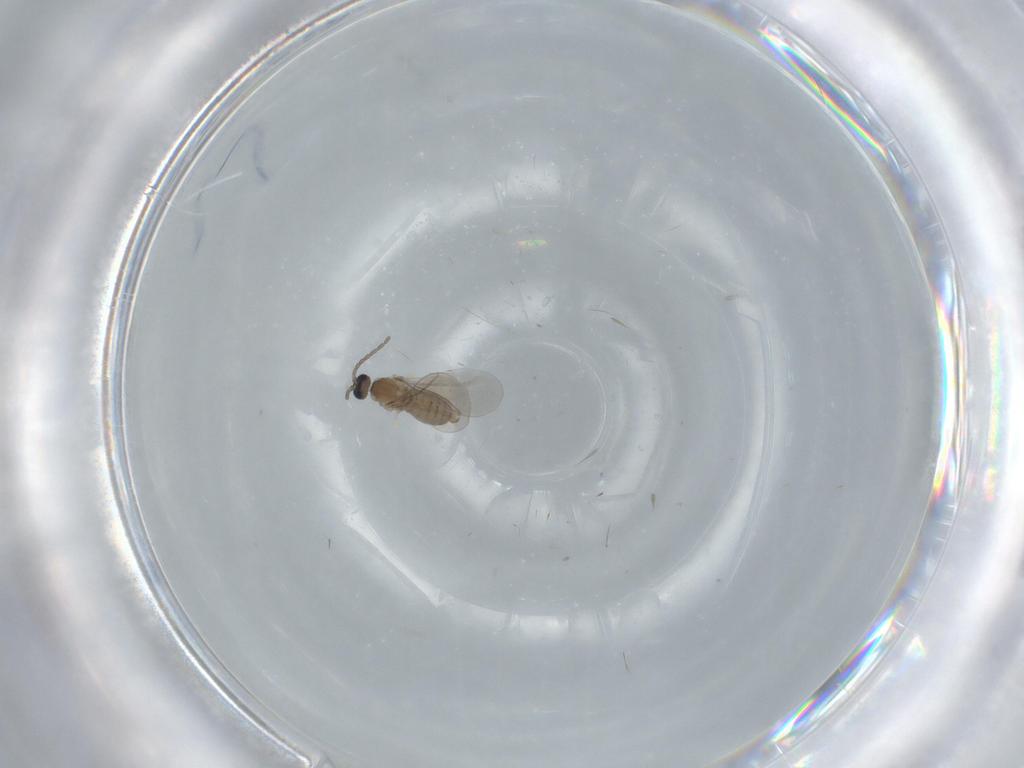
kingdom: Animalia
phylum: Arthropoda
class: Insecta
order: Diptera
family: Cecidomyiidae
